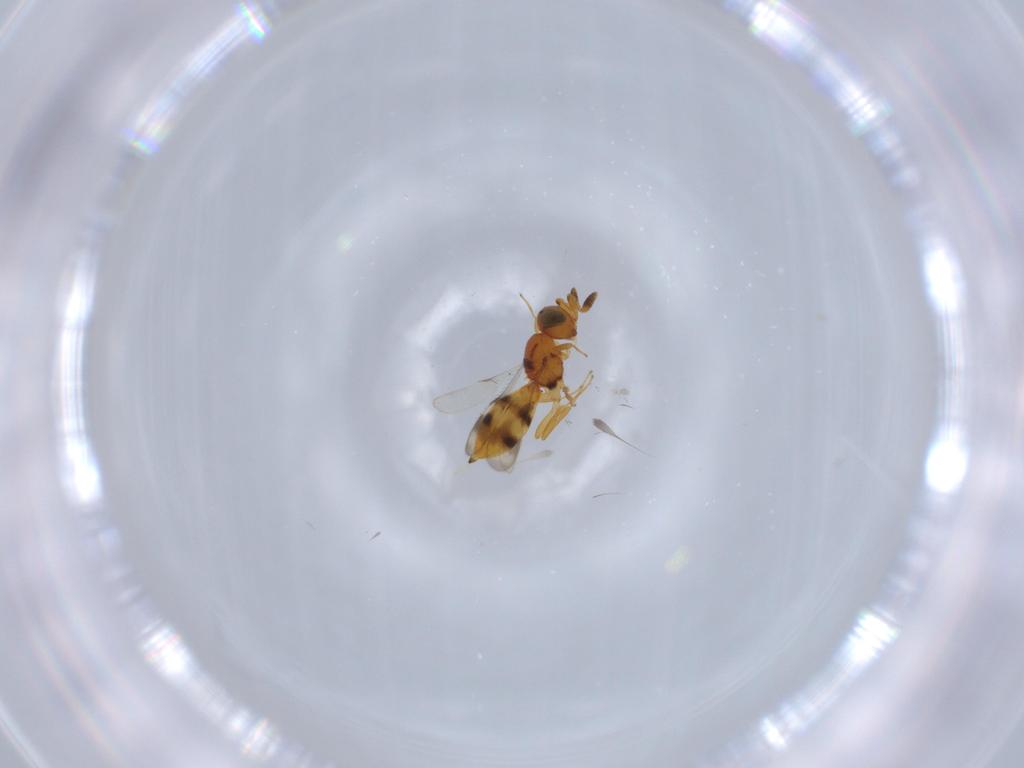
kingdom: Animalia
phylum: Arthropoda
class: Insecta
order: Hymenoptera
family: Scelionidae
